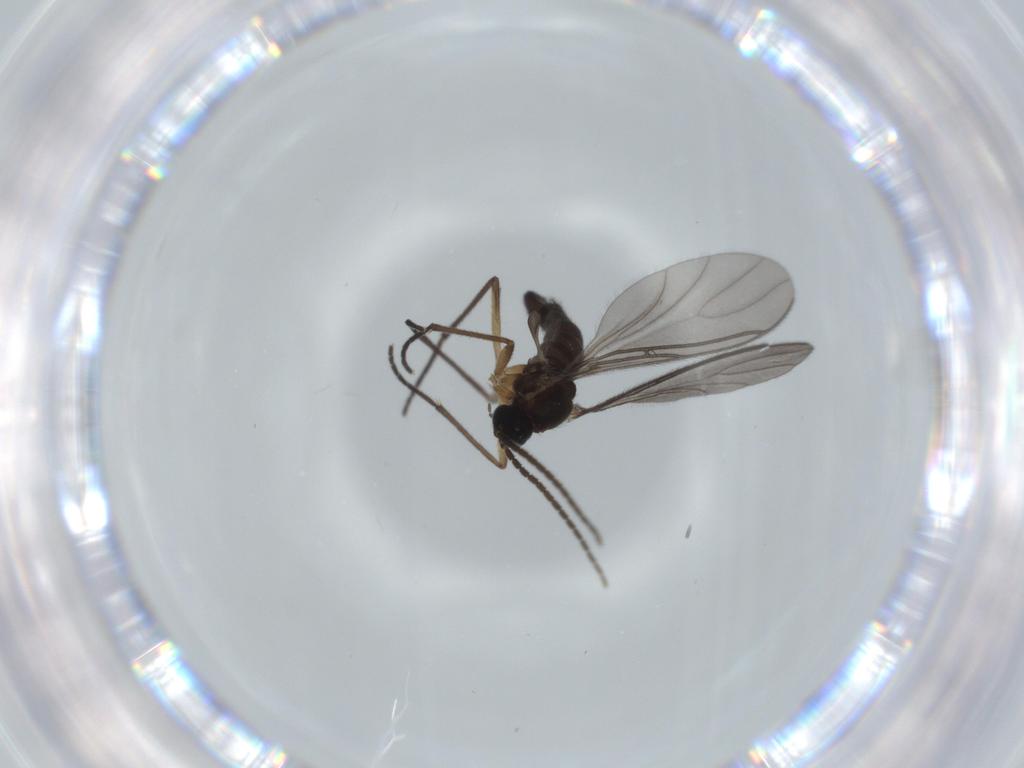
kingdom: Animalia
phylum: Arthropoda
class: Insecta
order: Diptera
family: Sciaridae
